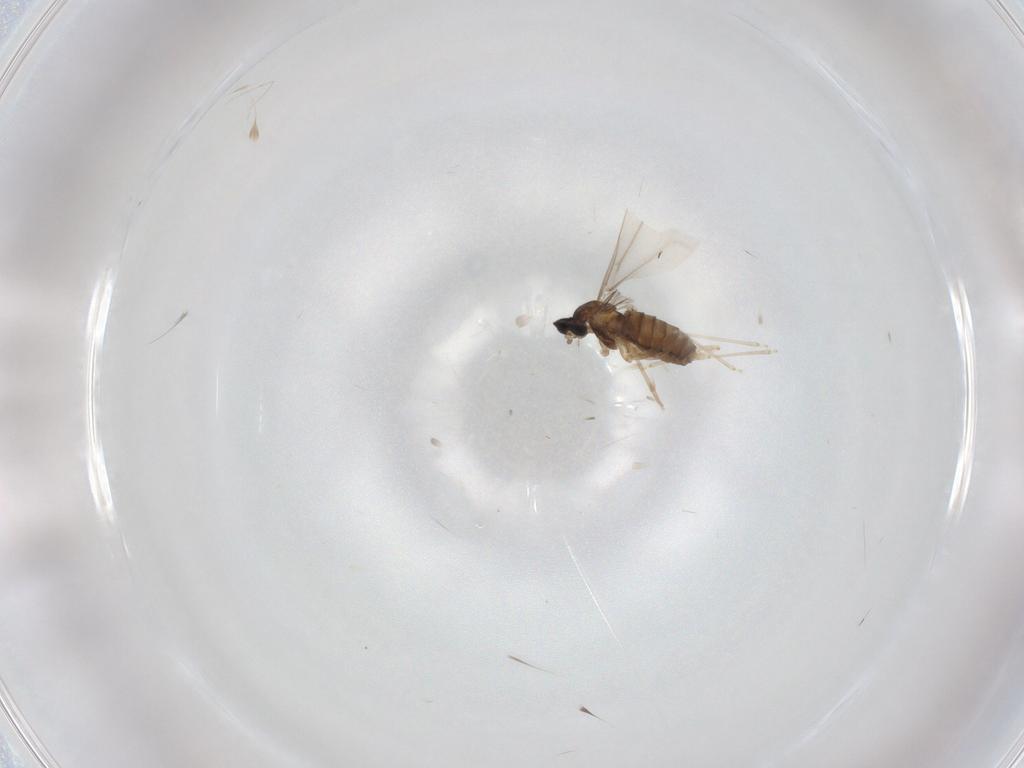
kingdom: Animalia
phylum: Arthropoda
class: Insecta
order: Diptera
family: Cecidomyiidae
